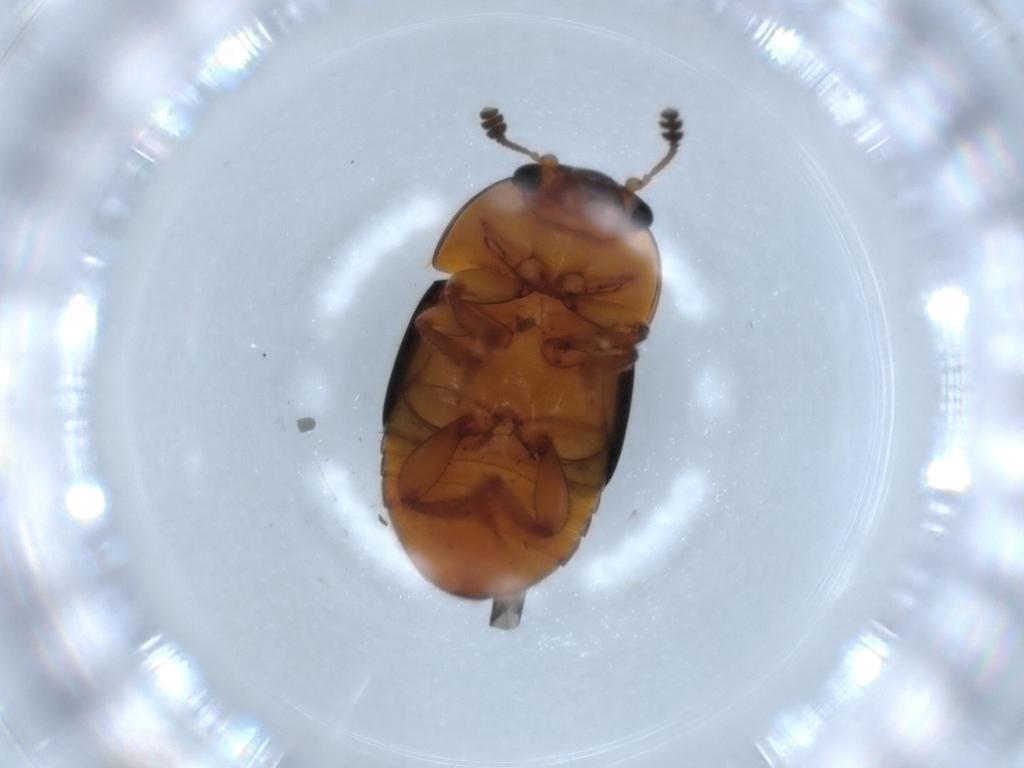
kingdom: Animalia
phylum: Arthropoda
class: Insecta
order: Coleoptera
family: Nitidulidae
